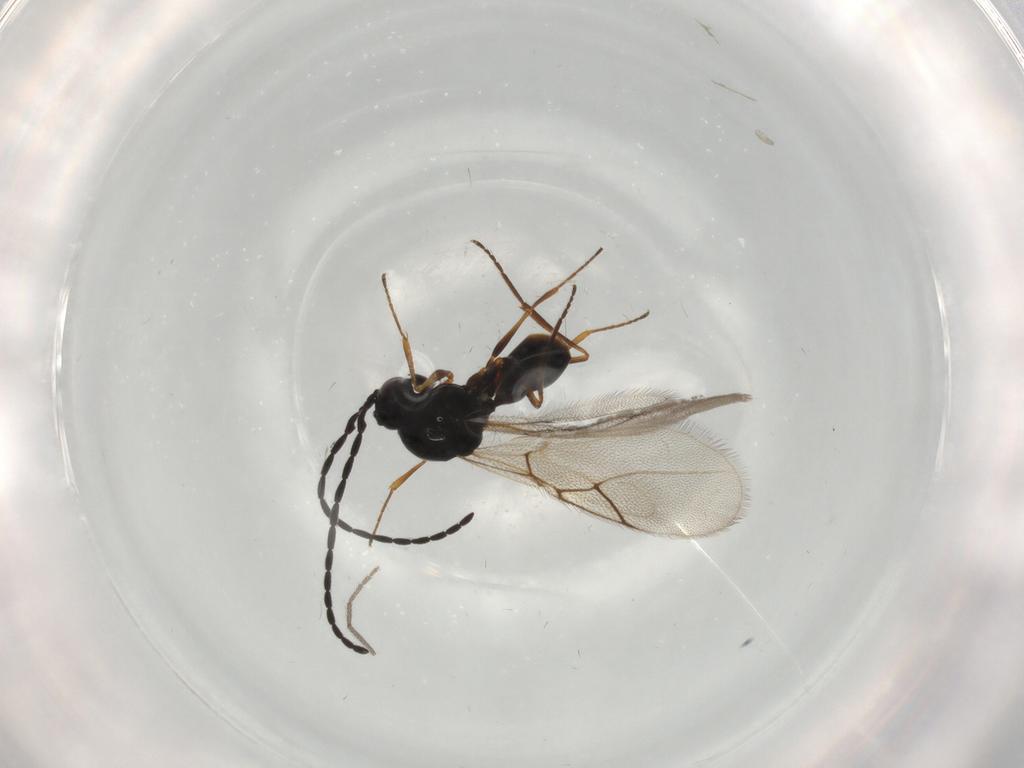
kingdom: Animalia
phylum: Arthropoda
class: Insecta
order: Hymenoptera
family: Figitidae
